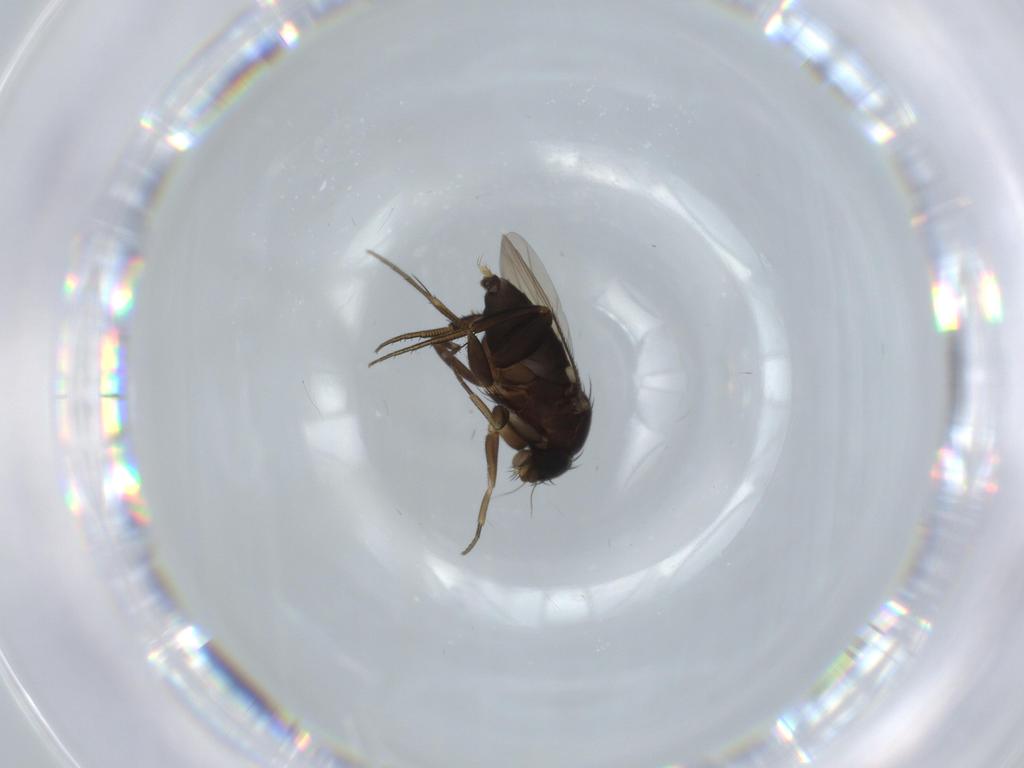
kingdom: Animalia
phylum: Arthropoda
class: Insecta
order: Diptera
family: Phoridae
